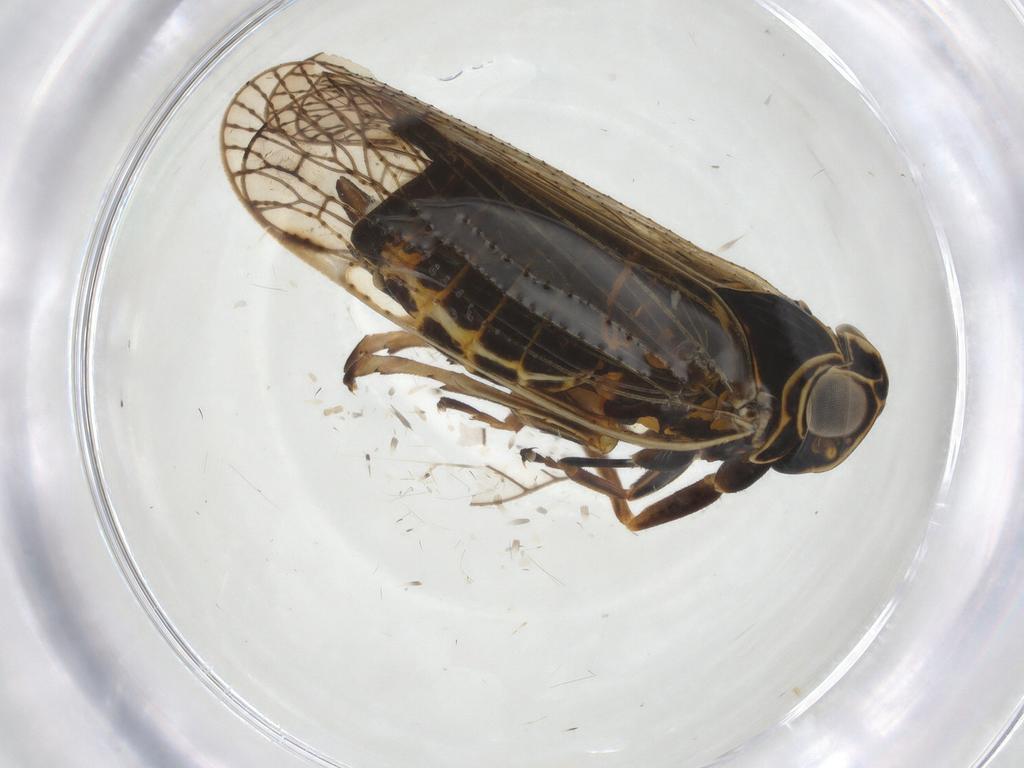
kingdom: Animalia
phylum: Arthropoda
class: Insecta
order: Hemiptera
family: Cixiidae
